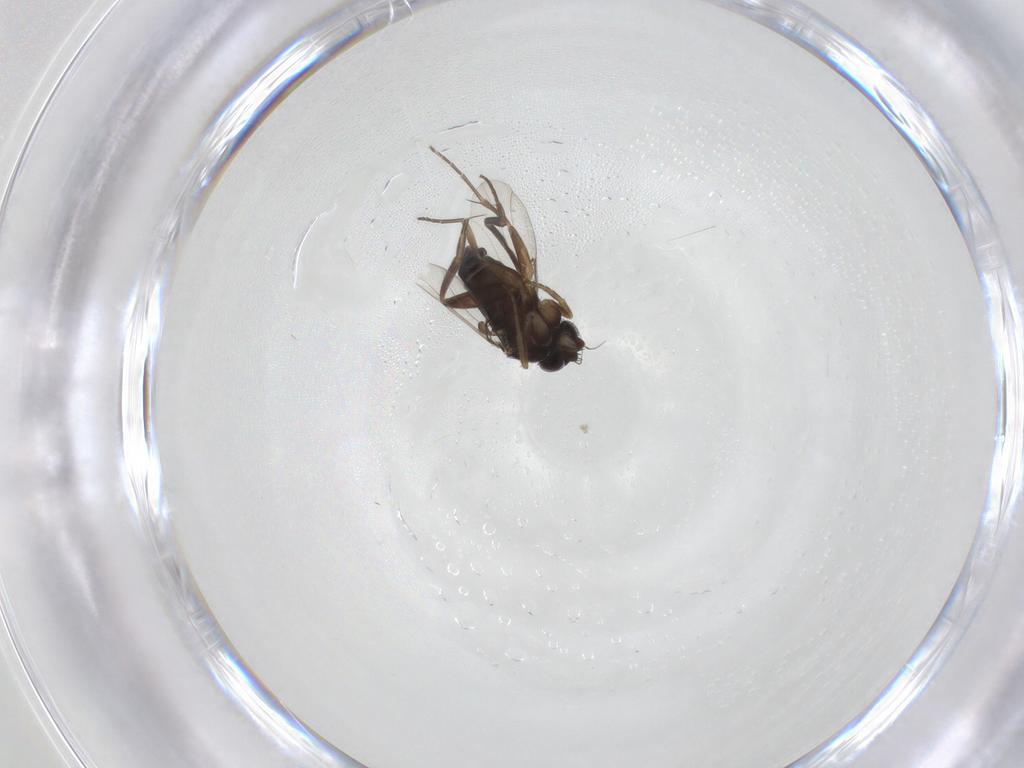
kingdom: Animalia
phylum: Arthropoda
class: Insecta
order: Diptera
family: Phoridae
